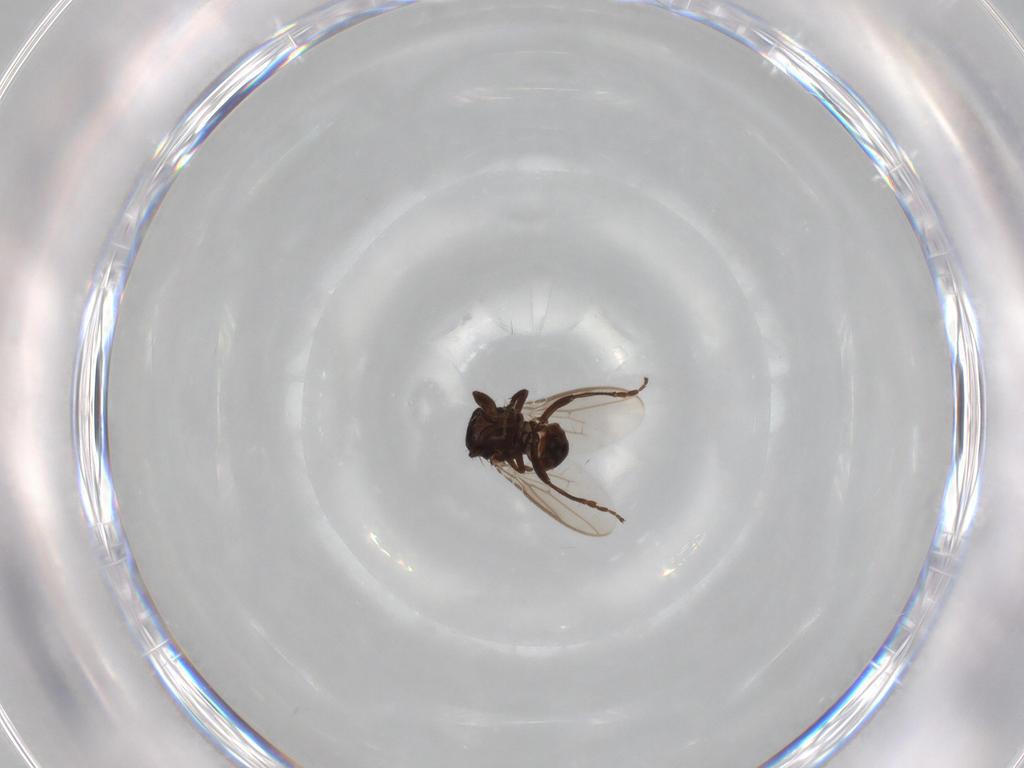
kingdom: Animalia
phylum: Arthropoda
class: Insecta
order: Diptera
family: Sphaeroceridae
